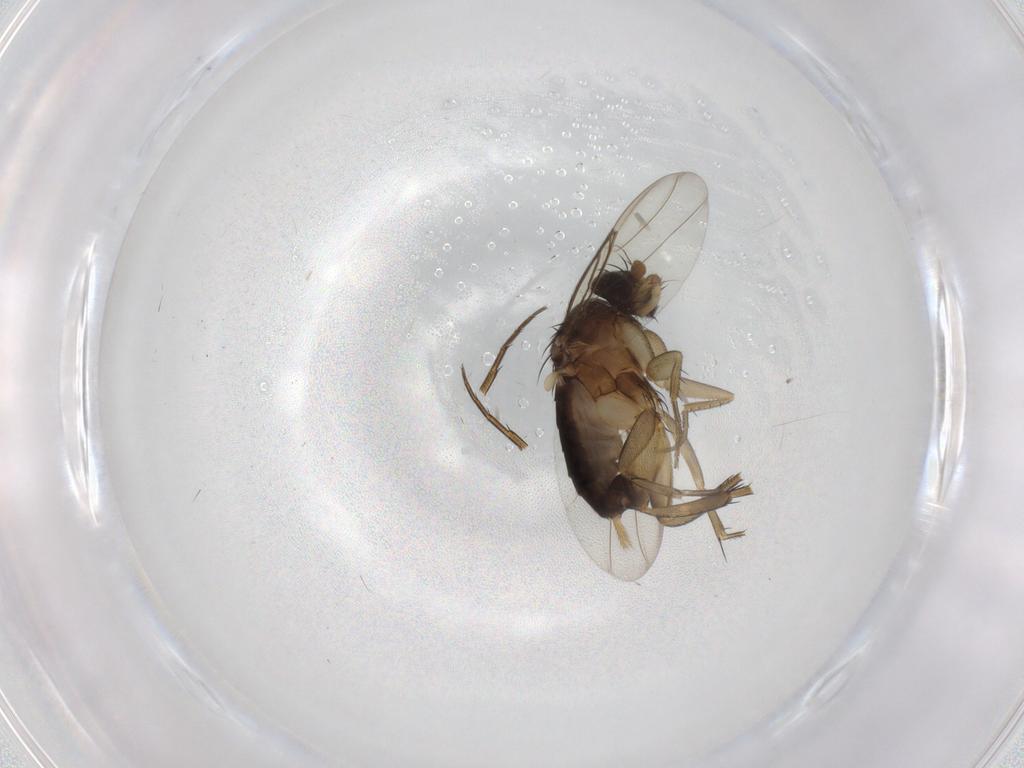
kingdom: Animalia
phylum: Arthropoda
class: Insecta
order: Diptera
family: Phoridae
